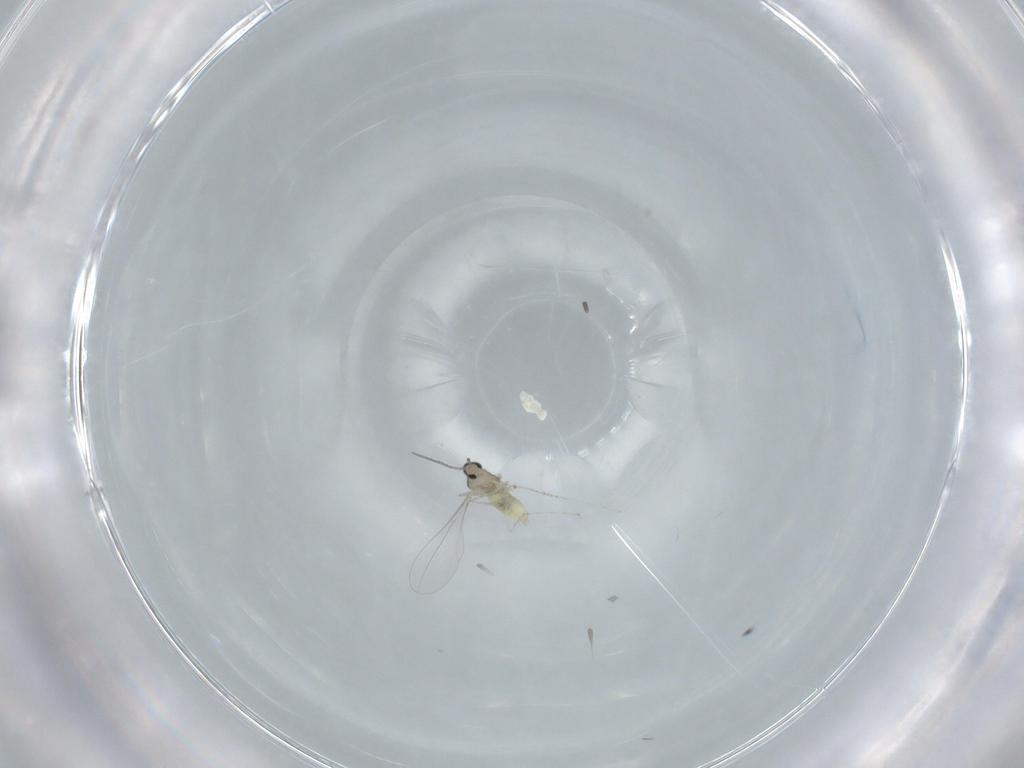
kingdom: Animalia
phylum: Arthropoda
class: Insecta
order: Diptera
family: Cecidomyiidae
